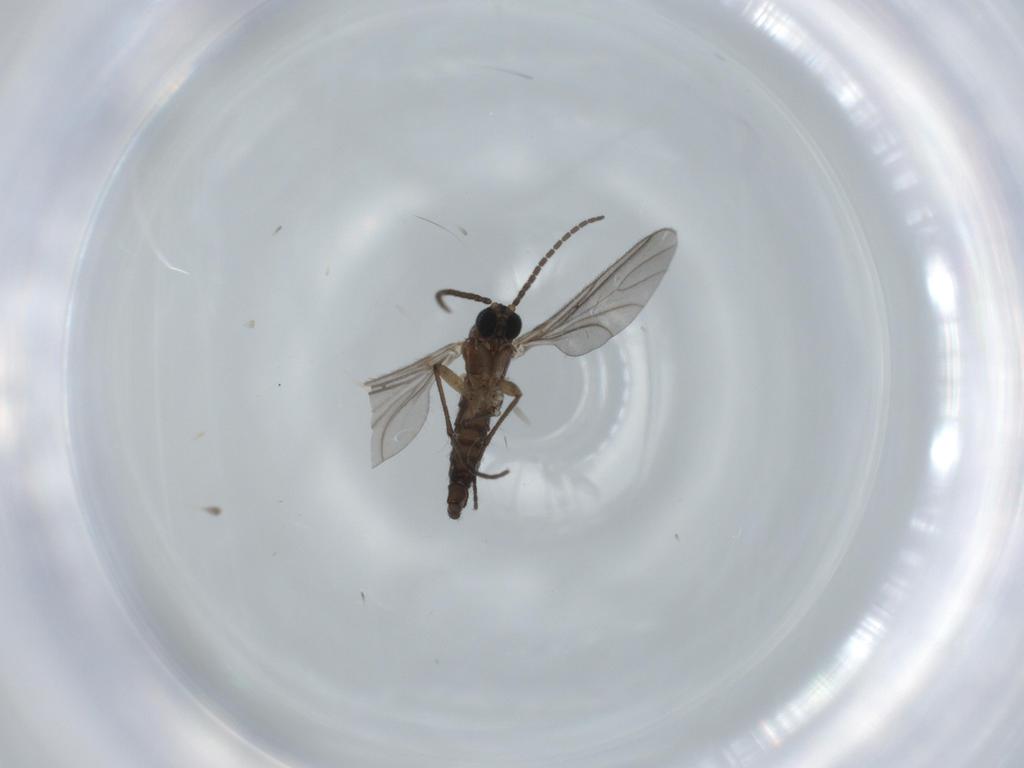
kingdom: Animalia
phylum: Arthropoda
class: Insecta
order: Diptera
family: Sciaridae
